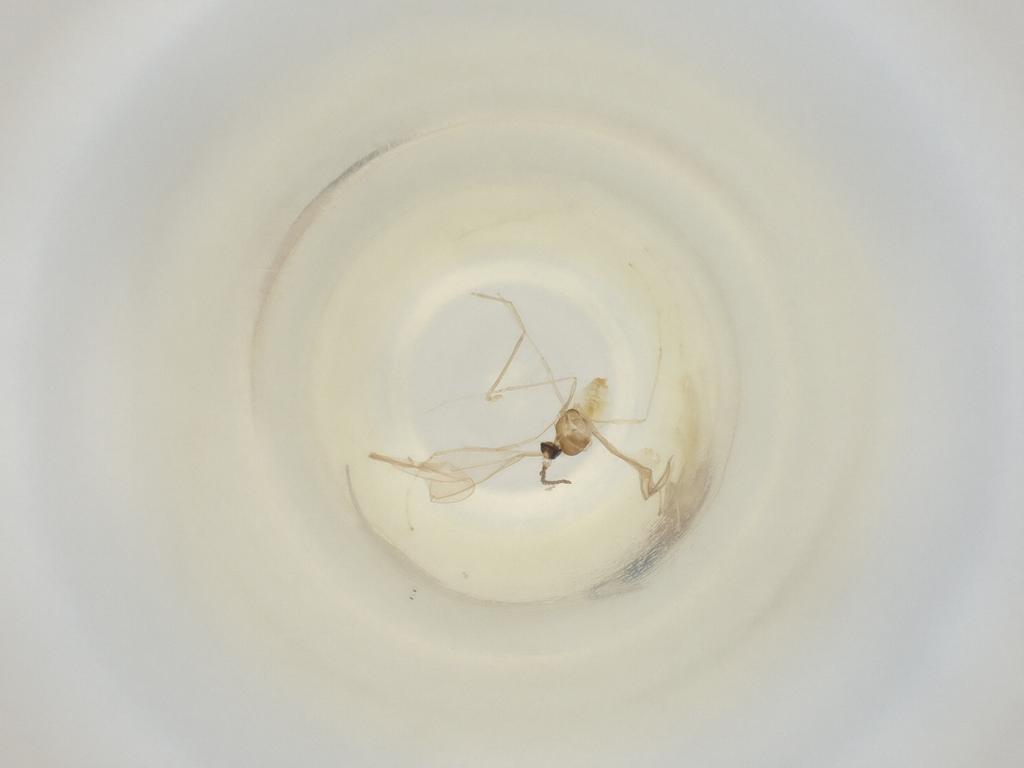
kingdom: Animalia
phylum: Arthropoda
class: Insecta
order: Diptera
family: Cecidomyiidae
